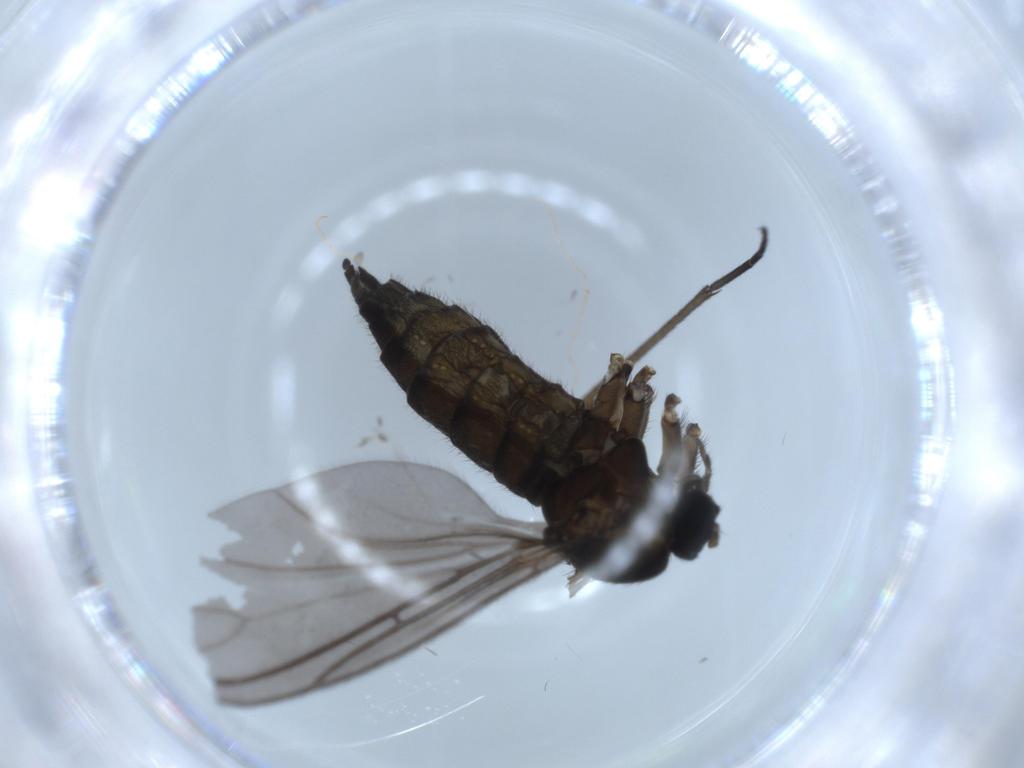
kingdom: Animalia
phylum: Arthropoda
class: Insecta
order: Diptera
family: Sciaridae
